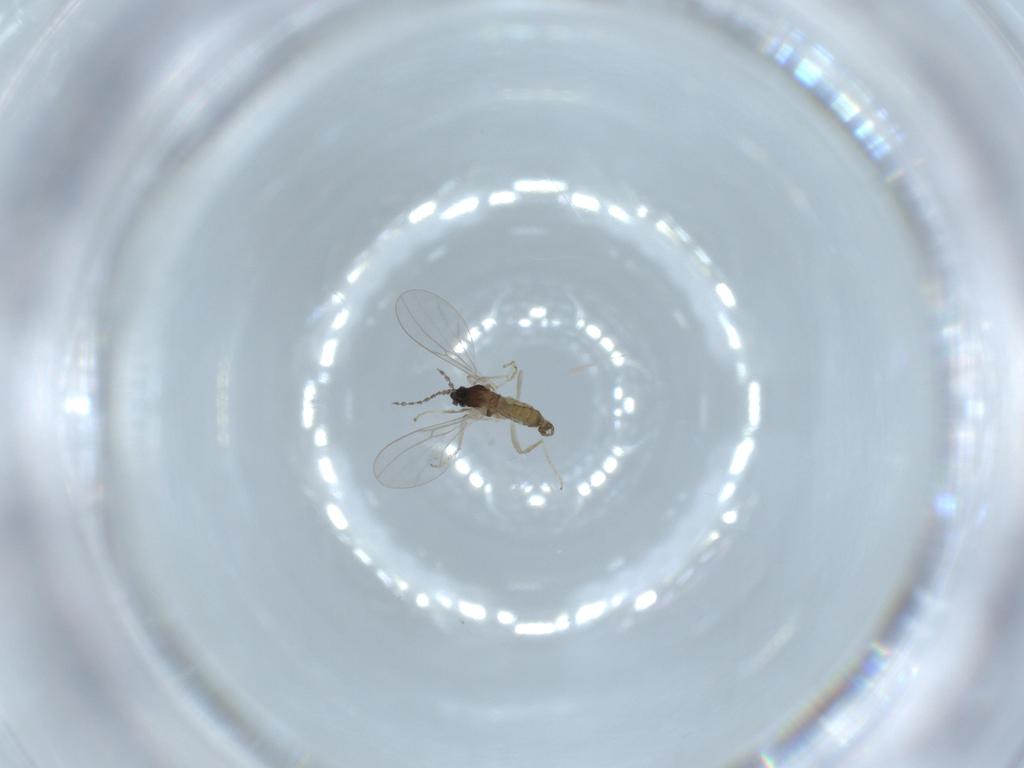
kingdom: Animalia
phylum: Arthropoda
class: Insecta
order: Diptera
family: Cecidomyiidae
